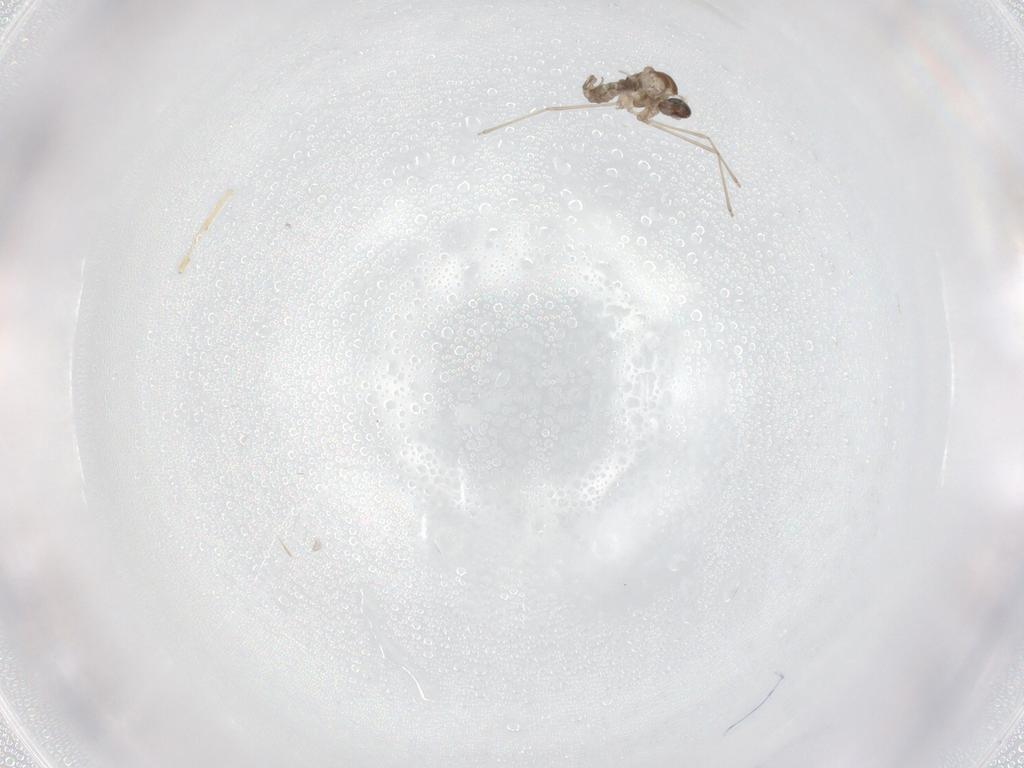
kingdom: Animalia
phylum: Arthropoda
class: Insecta
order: Diptera
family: Cecidomyiidae
